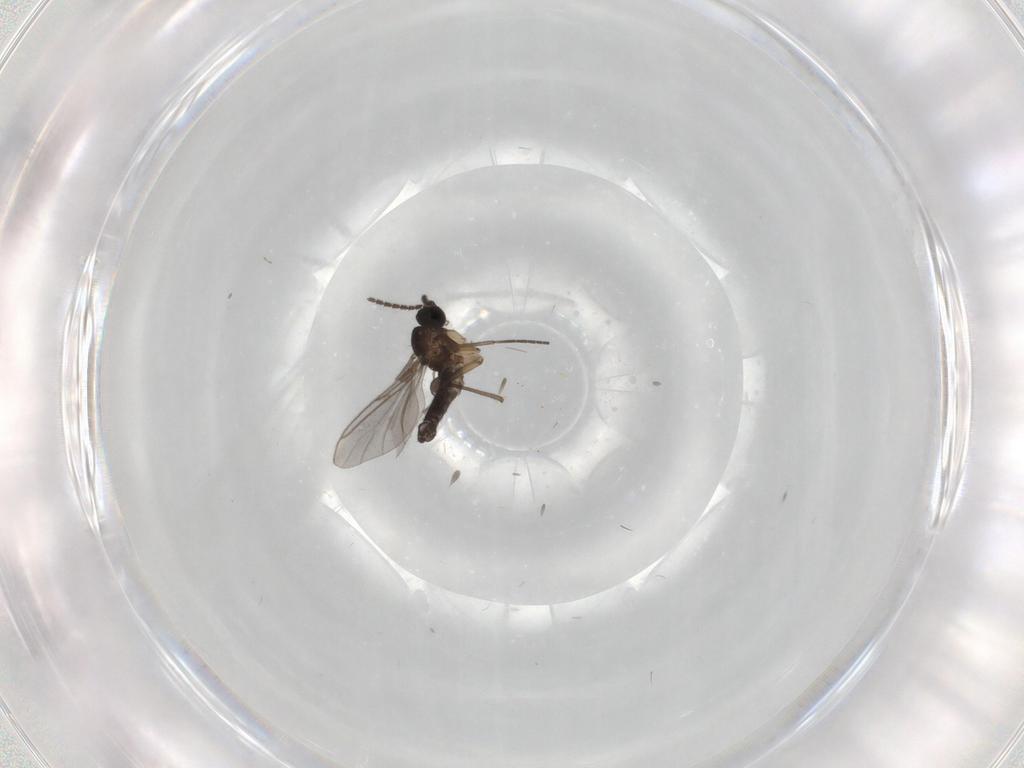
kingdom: Animalia
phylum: Arthropoda
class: Insecta
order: Diptera
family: Sciaridae
